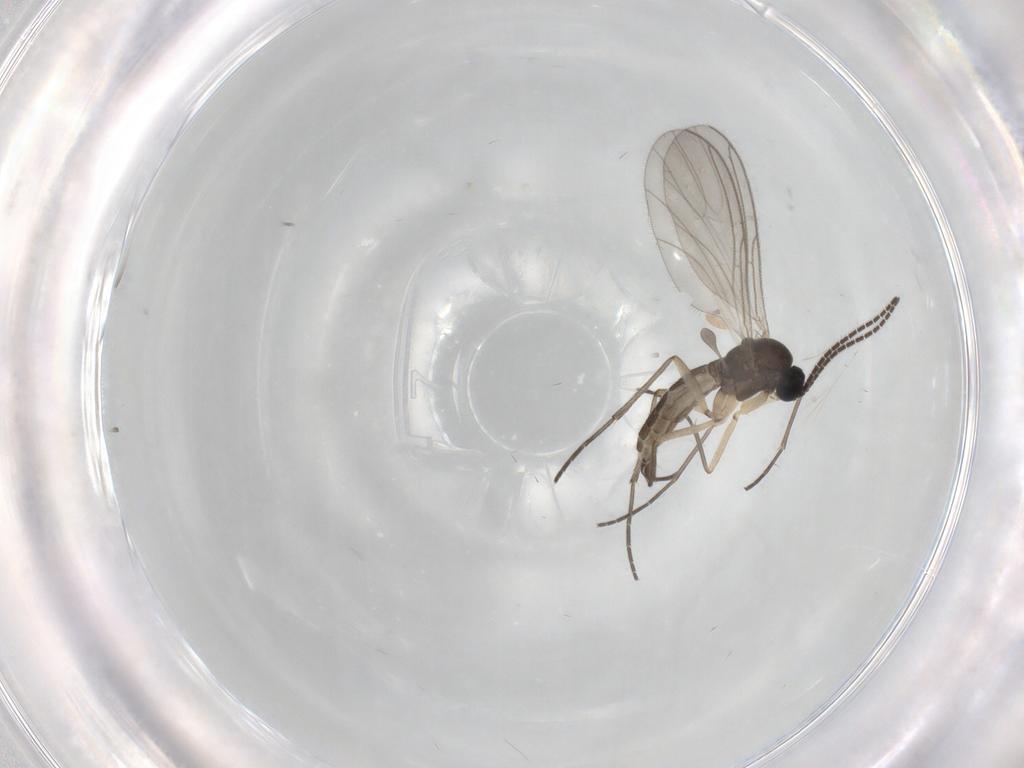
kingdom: Animalia
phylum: Arthropoda
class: Insecta
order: Diptera
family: Sciaridae
